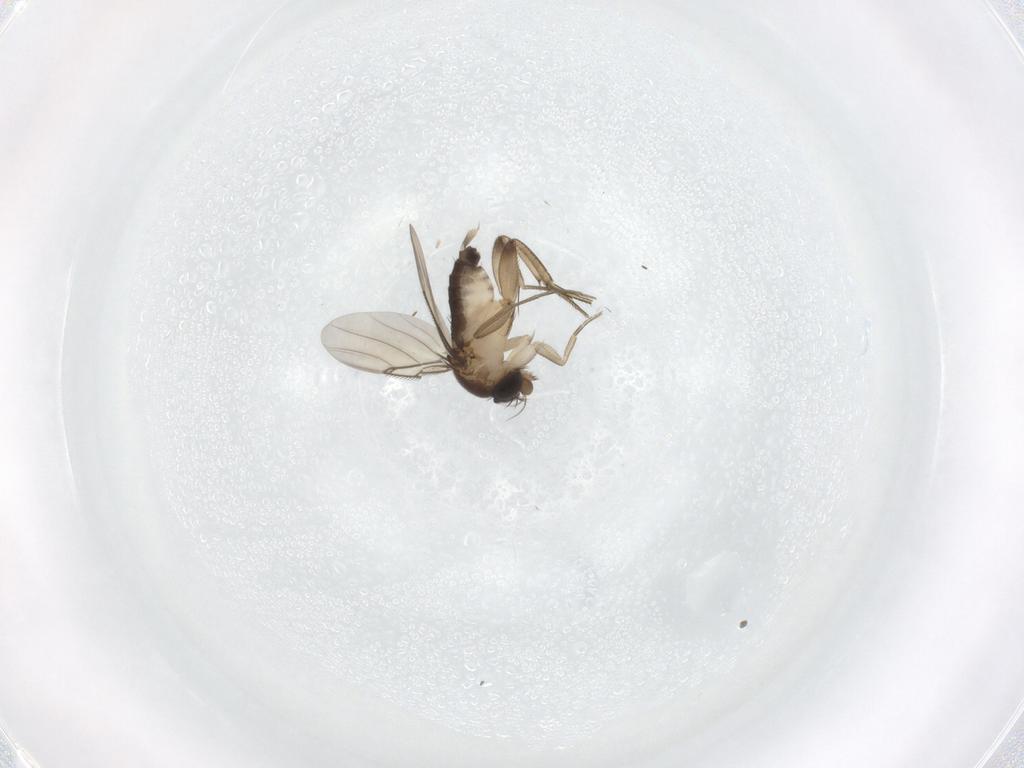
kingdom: Animalia
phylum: Arthropoda
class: Insecta
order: Diptera
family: Phoridae
